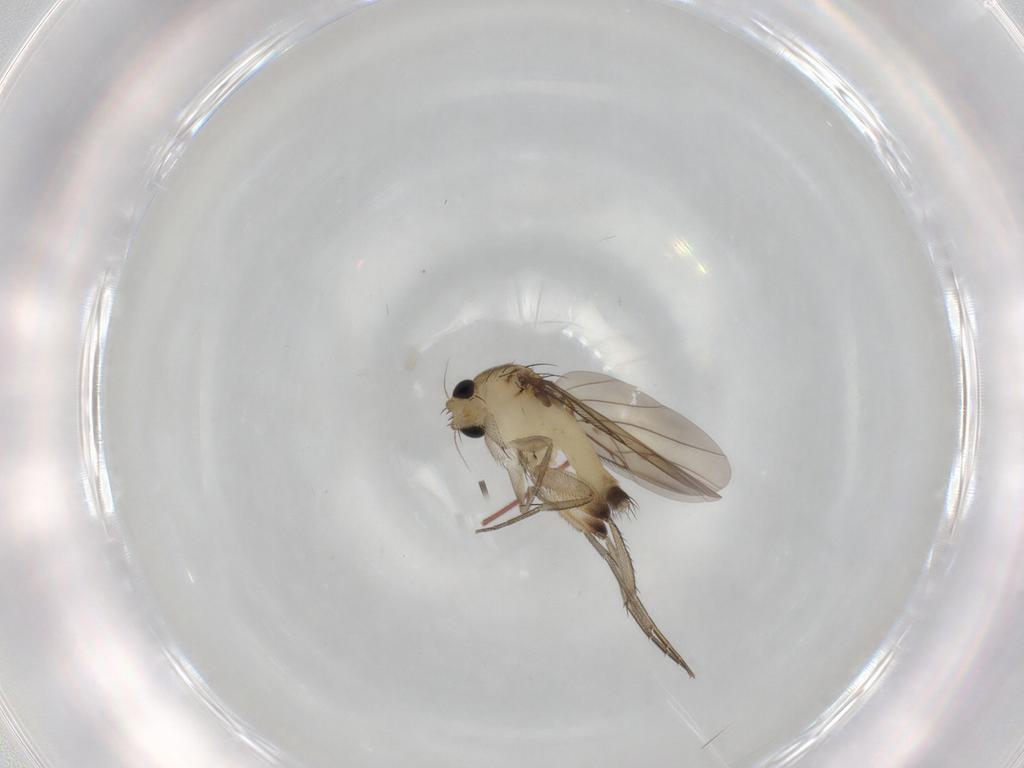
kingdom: Animalia
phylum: Arthropoda
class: Insecta
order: Diptera
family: Phoridae
